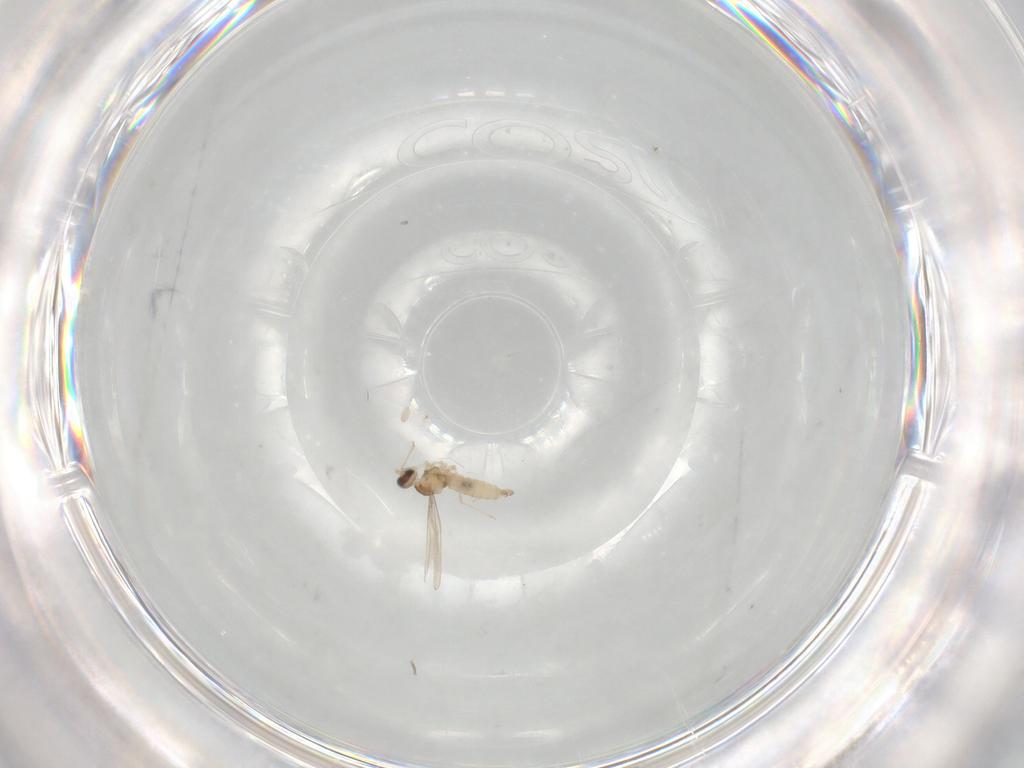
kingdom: Animalia
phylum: Arthropoda
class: Insecta
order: Diptera
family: Cecidomyiidae
